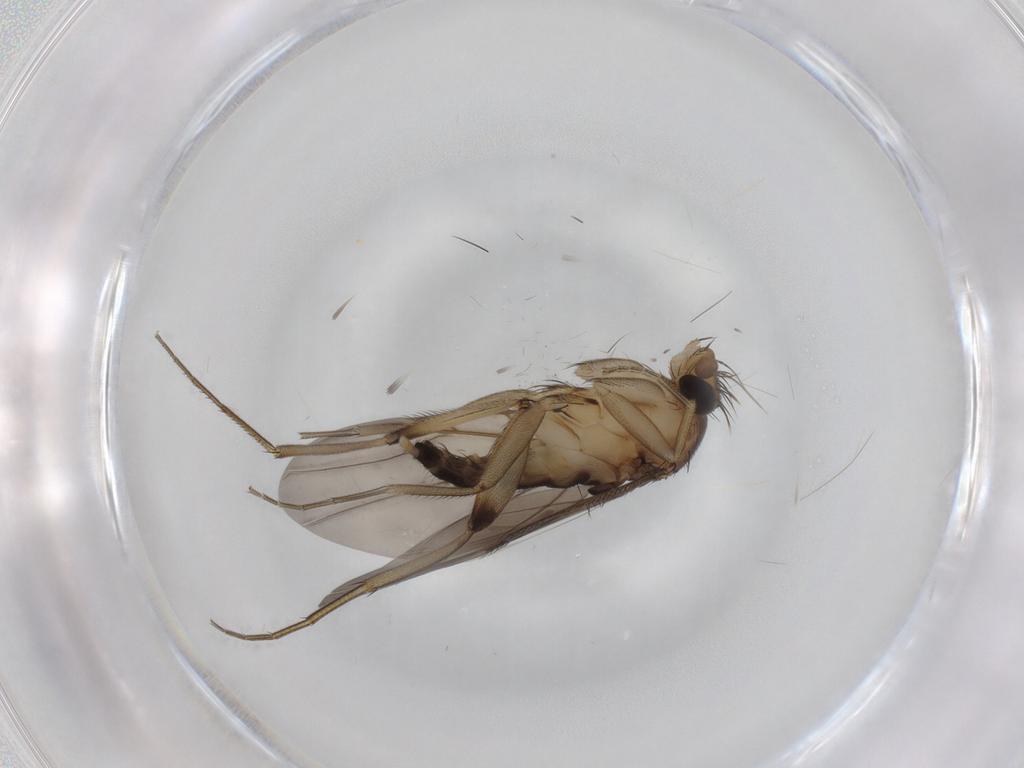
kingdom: Animalia
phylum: Arthropoda
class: Insecta
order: Diptera
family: Phoridae
